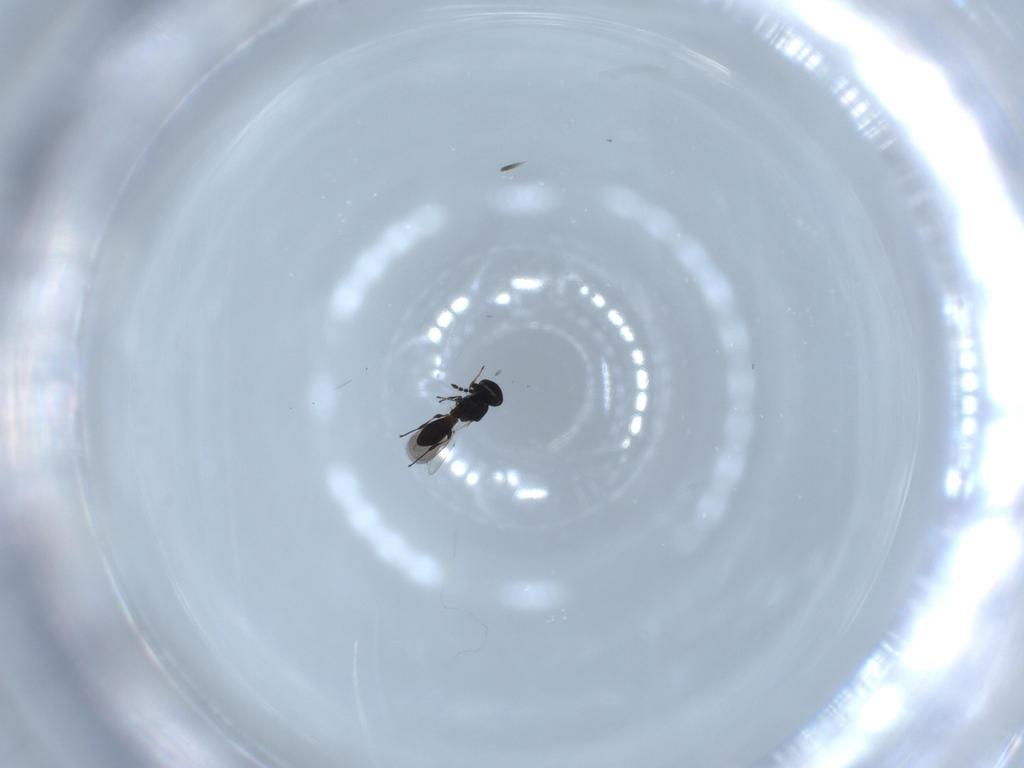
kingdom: Animalia
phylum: Arthropoda
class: Insecta
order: Hymenoptera
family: Platygastridae
